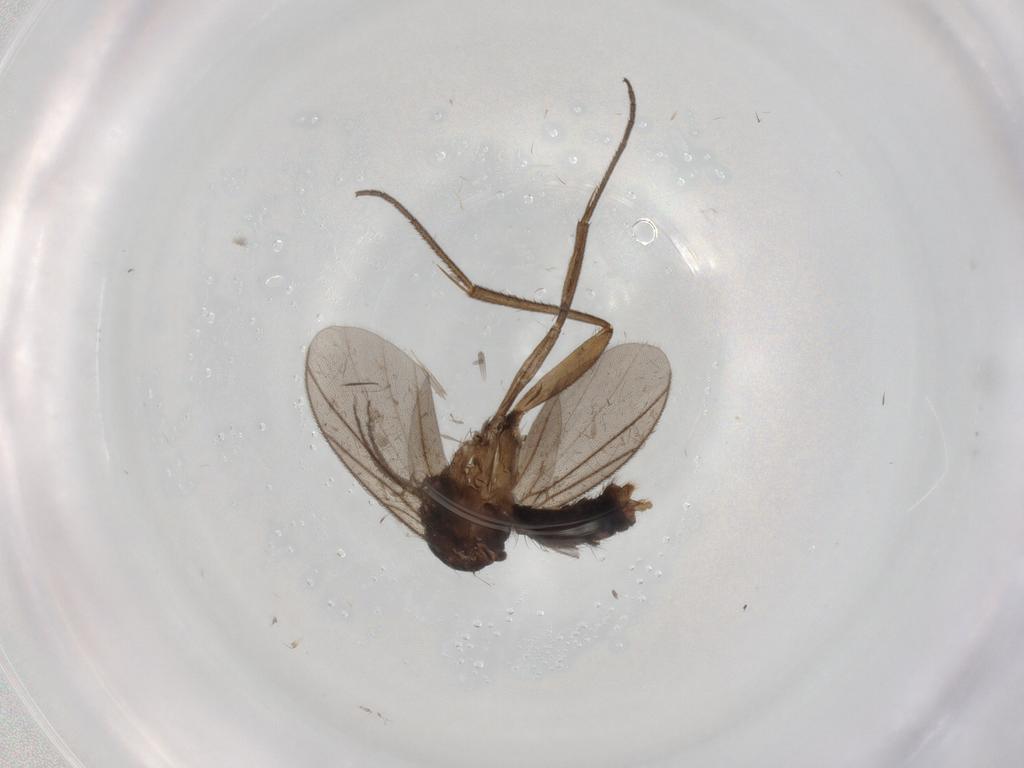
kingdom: Animalia
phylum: Arthropoda
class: Insecta
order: Diptera
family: Mycetophilidae
